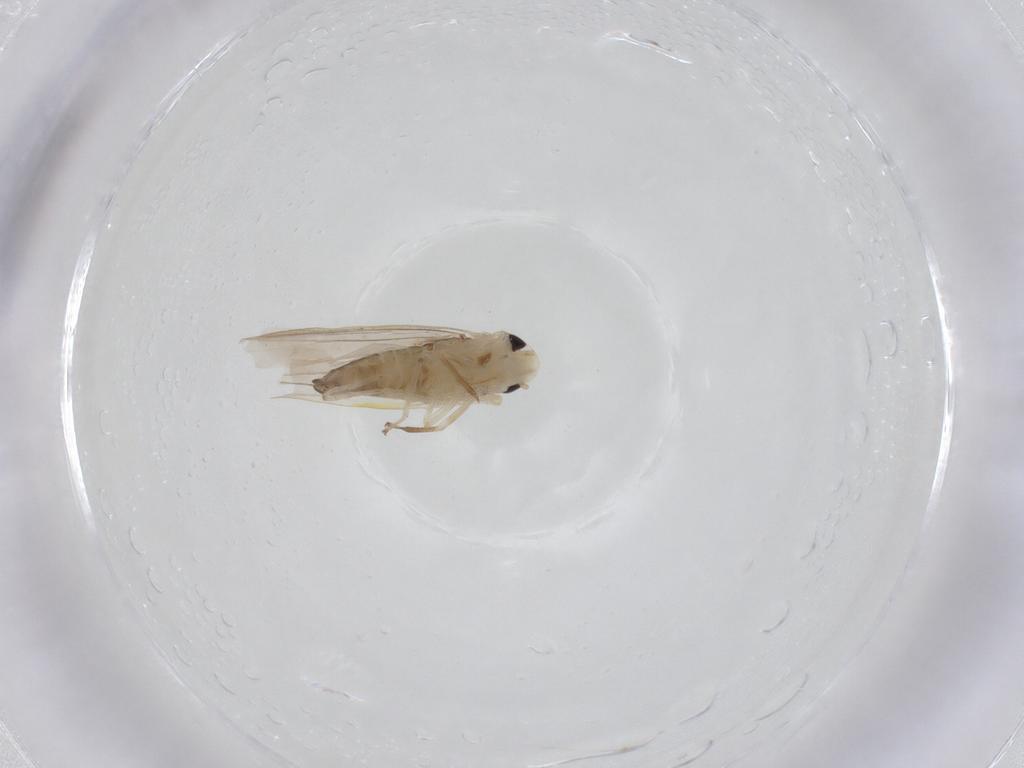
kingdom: Animalia
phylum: Arthropoda
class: Insecta
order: Hemiptera
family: Cicadellidae
